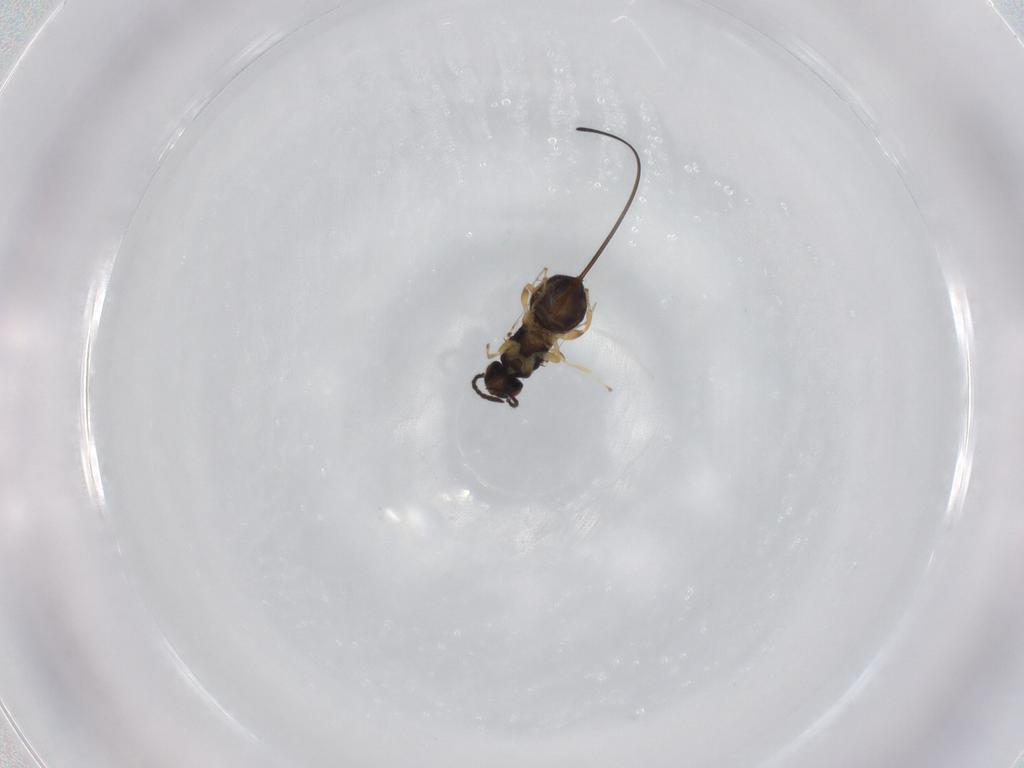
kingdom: Animalia
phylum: Arthropoda
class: Insecta
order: Hymenoptera
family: Pteromalidae
